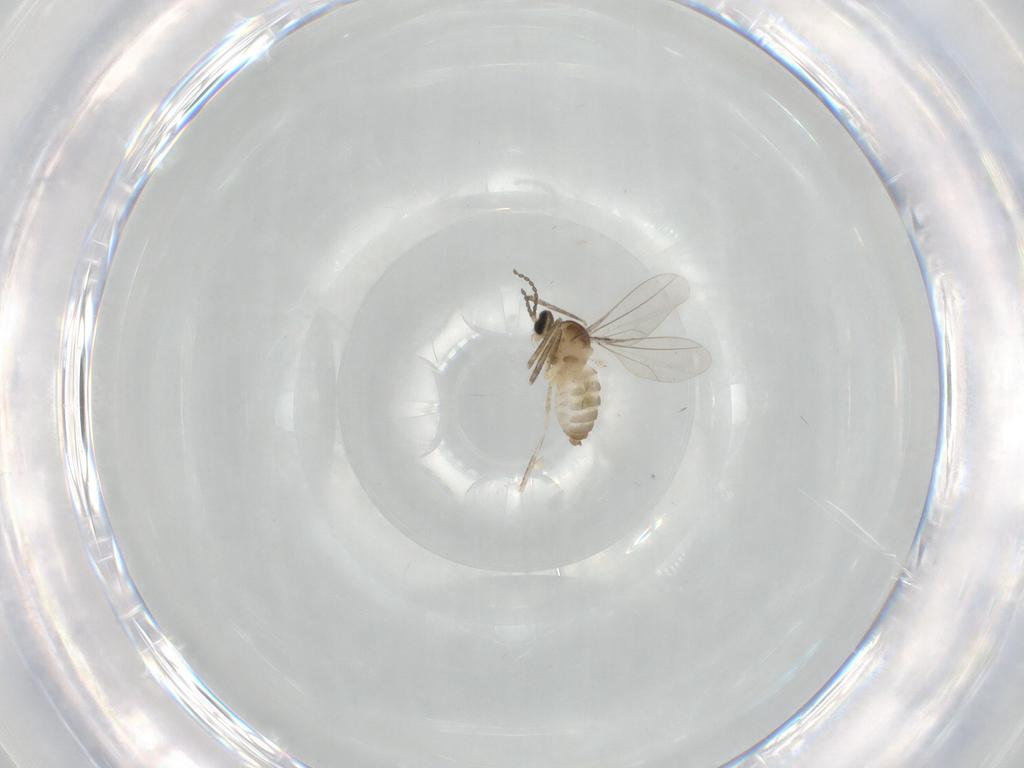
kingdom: Animalia
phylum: Arthropoda
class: Insecta
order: Diptera
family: Cecidomyiidae
